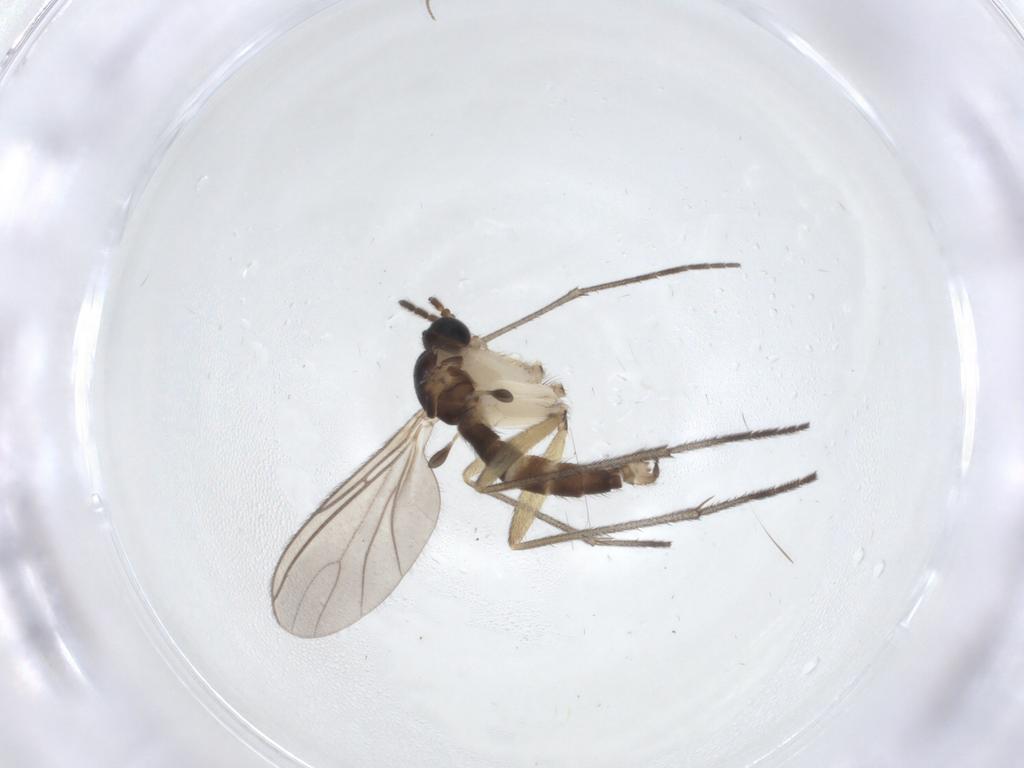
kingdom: Animalia
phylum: Arthropoda
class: Insecta
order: Diptera
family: Sciaridae
